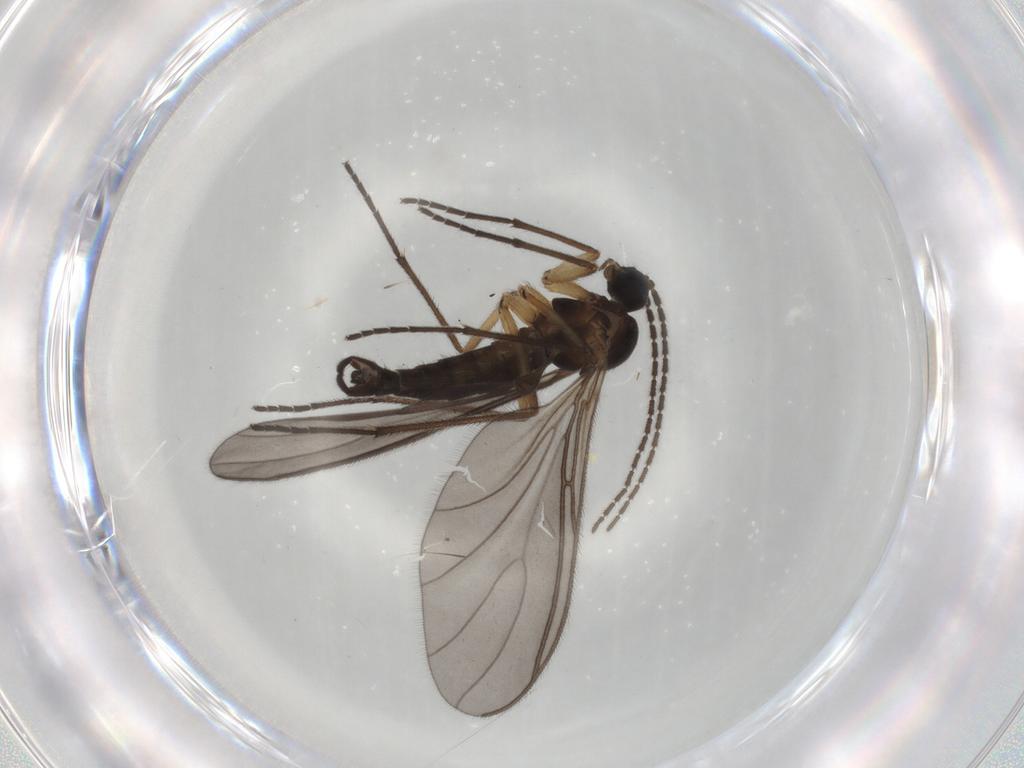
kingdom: Animalia
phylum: Arthropoda
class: Insecta
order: Diptera
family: Sciaridae
